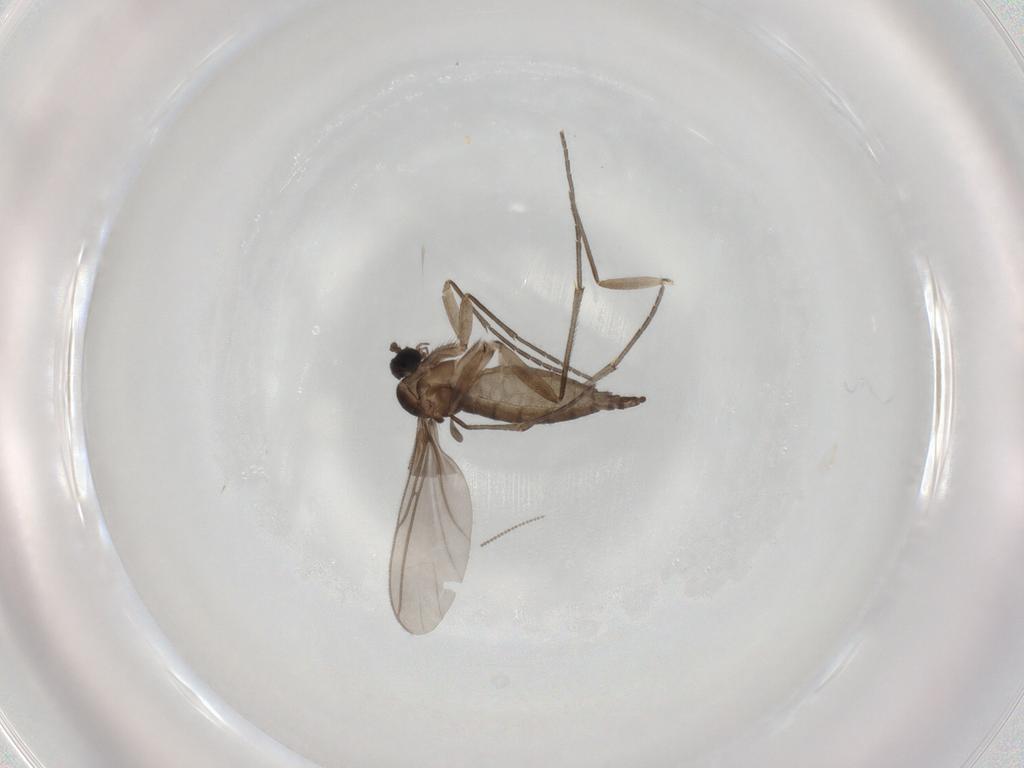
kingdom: Animalia
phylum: Arthropoda
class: Insecta
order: Diptera
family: Sciaridae
